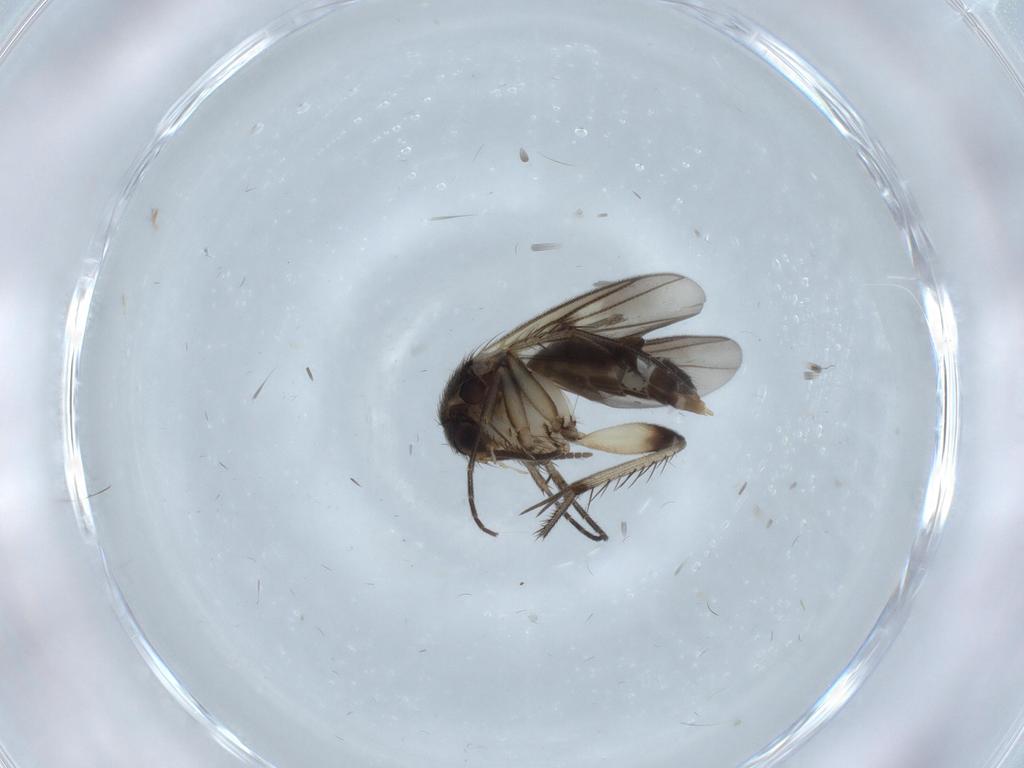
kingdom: Animalia
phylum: Arthropoda
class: Insecta
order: Diptera
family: Mycetophilidae
